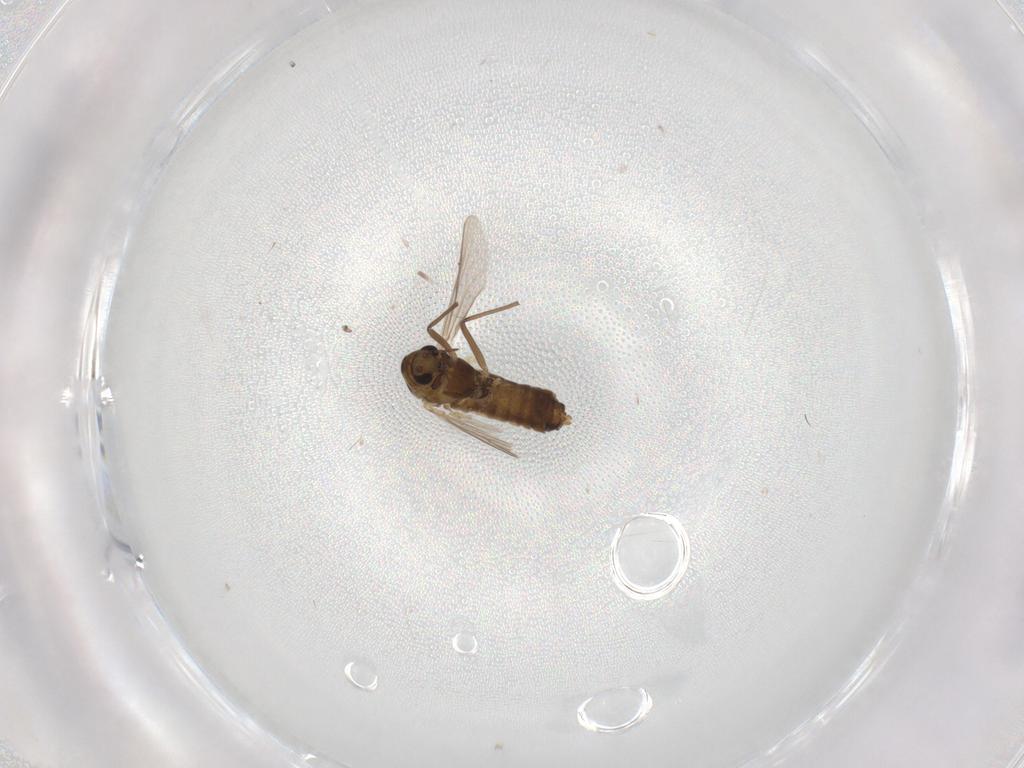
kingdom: Animalia
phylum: Arthropoda
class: Insecta
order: Diptera
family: Chironomidae
